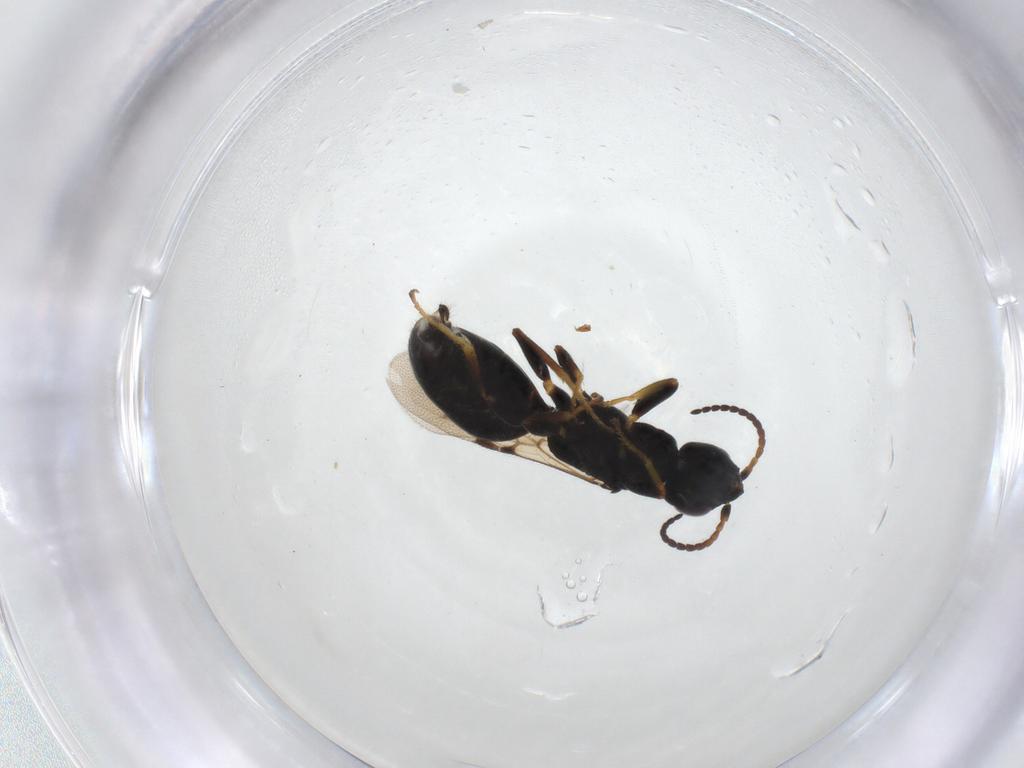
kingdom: Animalia
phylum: Arthropoda
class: Insecta
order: Hymenoptera
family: Bethylidae
